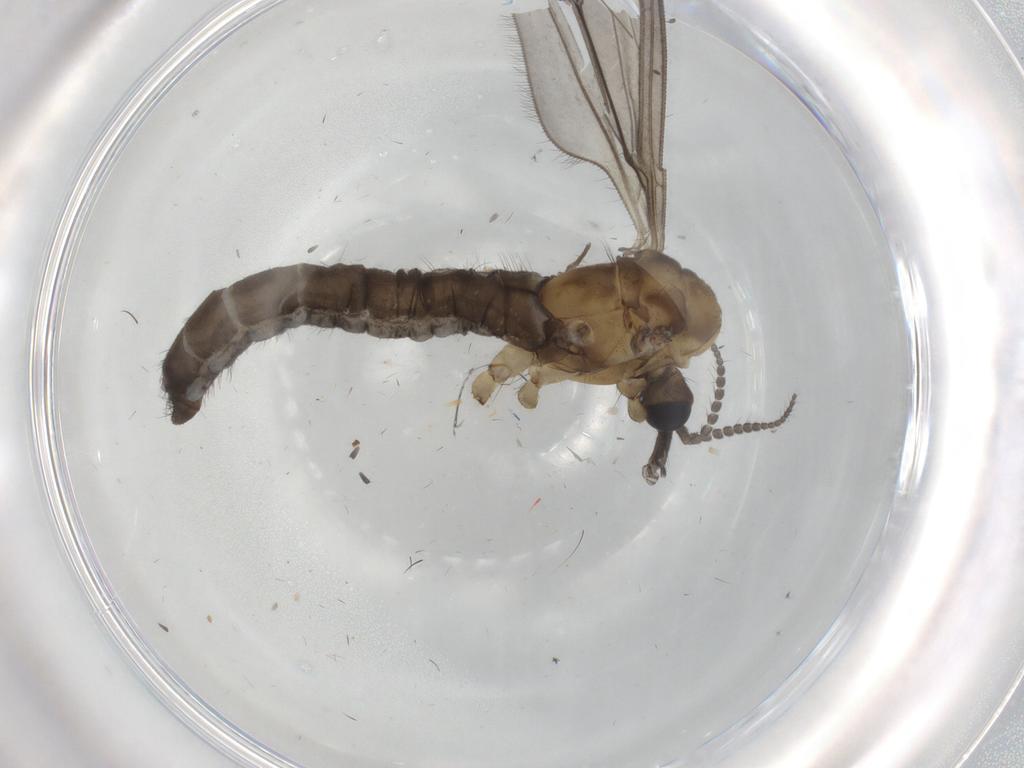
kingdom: Animalia
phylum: Arthropoda
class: Insecta
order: Diptera
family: Limoniidae
